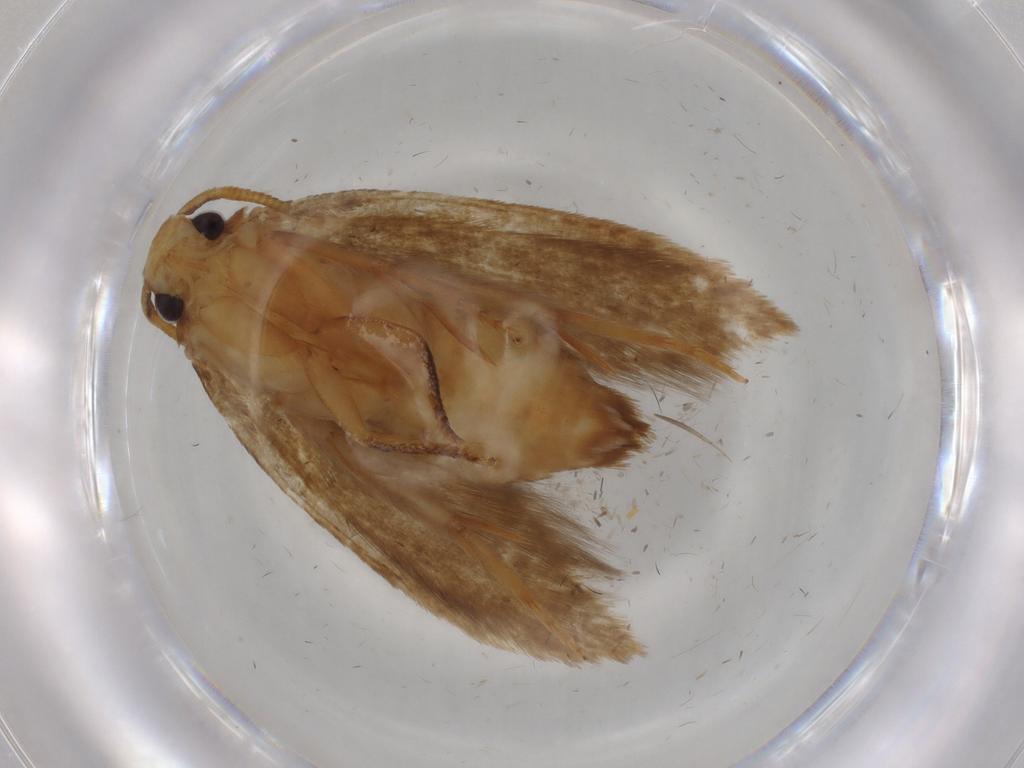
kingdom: Animalia
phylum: Arthropoda
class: Insecta
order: Lepidoptera
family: Tineidae
